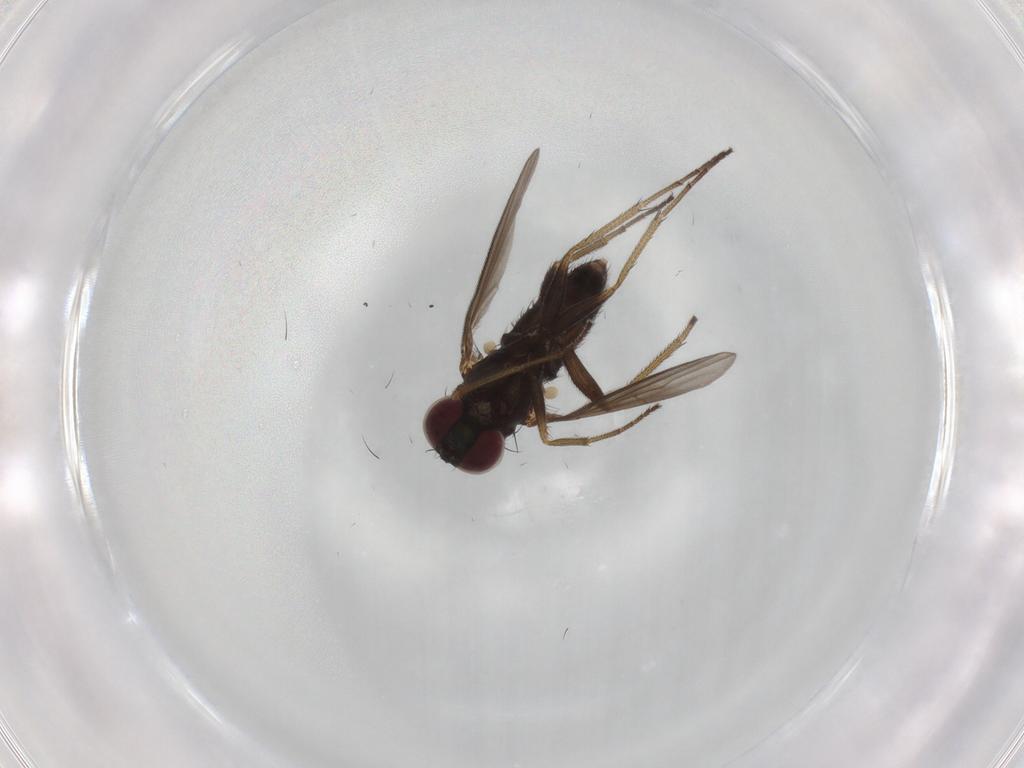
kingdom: Animalia
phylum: Arthropoda
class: Insecta
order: Diptera
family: Dolichopodidae
